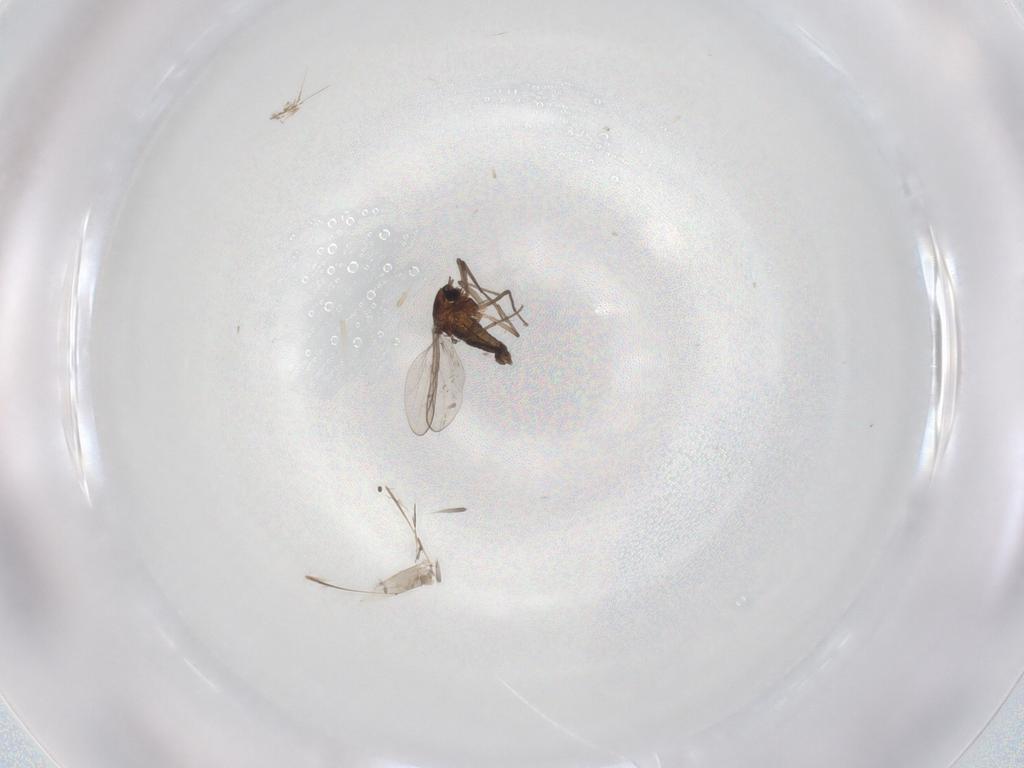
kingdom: Animalia
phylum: Arthropoda
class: Insecta
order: Diptera
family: Chironomidae
